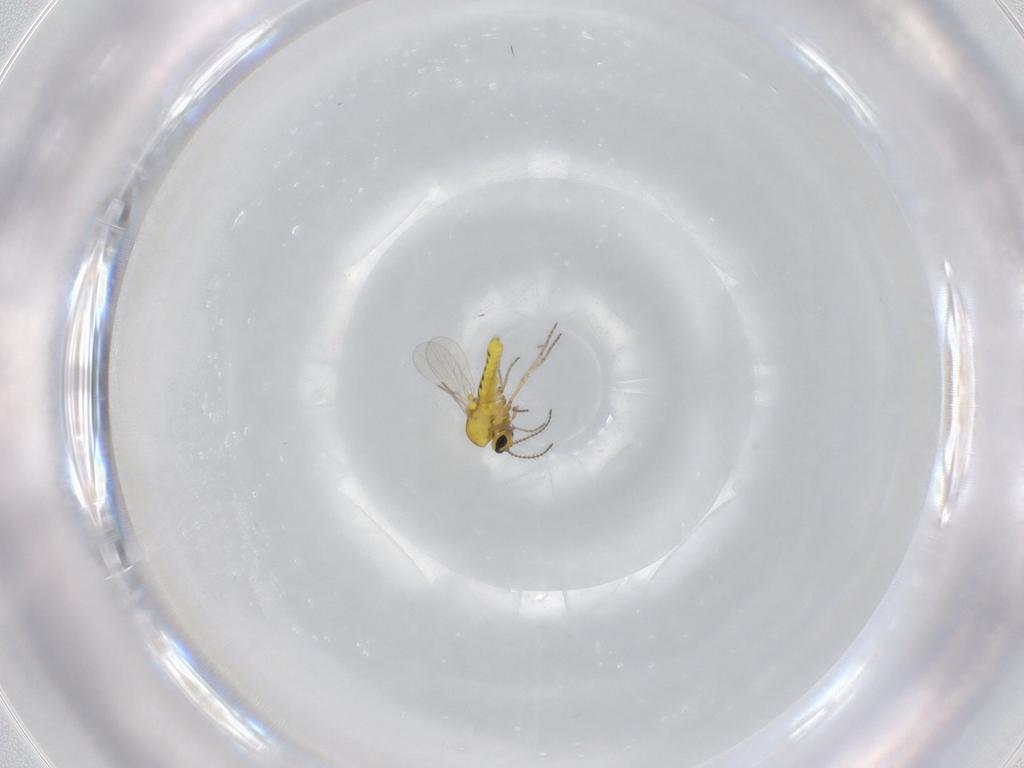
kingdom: Animalia
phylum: Arthropoda
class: Insecta
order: Diptera
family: Ceratopogonidae
